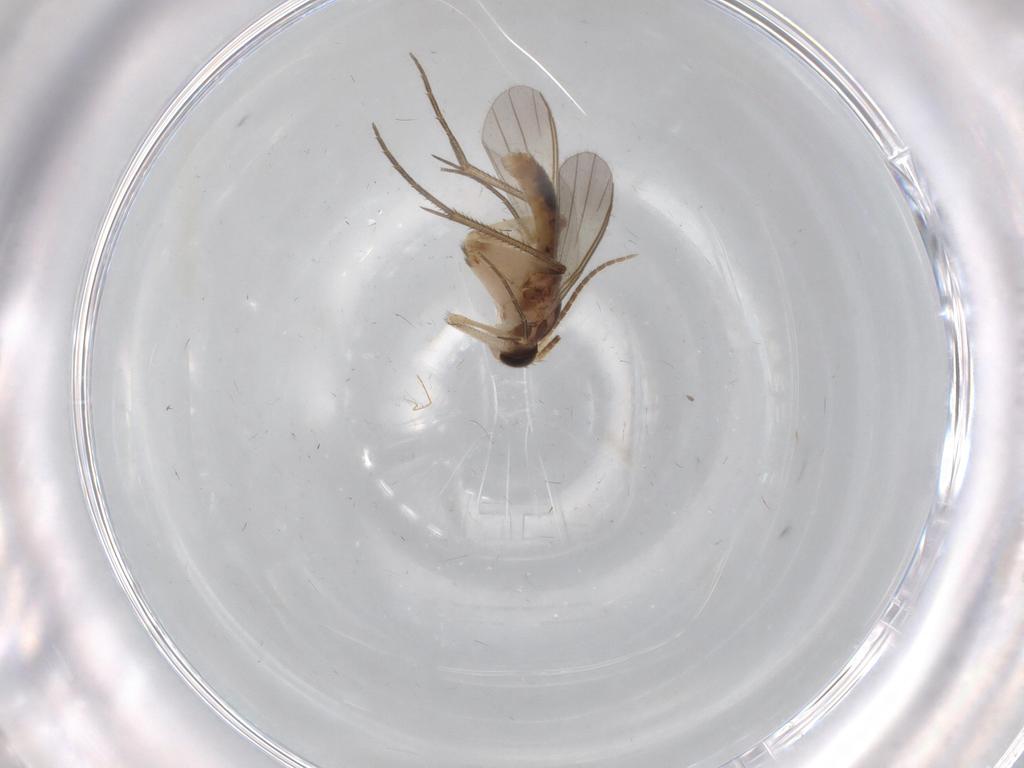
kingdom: Animalia
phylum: Arthropoda
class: Insecta
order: Diptera
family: Mycetophilidae
